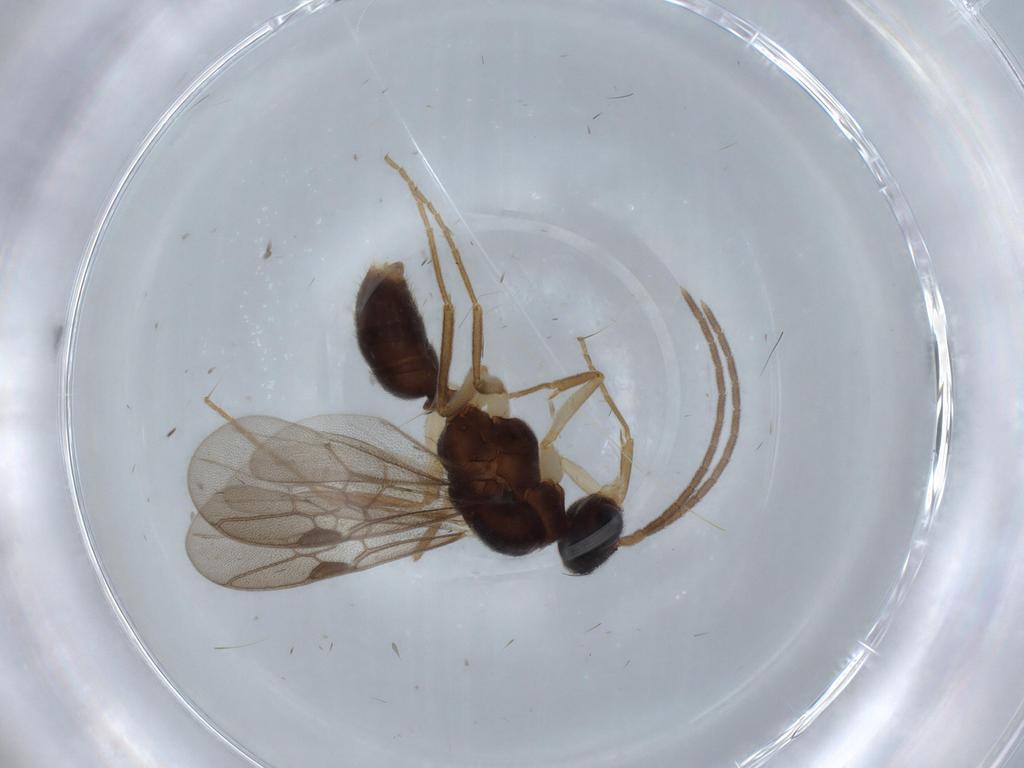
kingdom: Animalia
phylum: Arthropoda
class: Insecta
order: Hymenoptera
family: Formicidae
